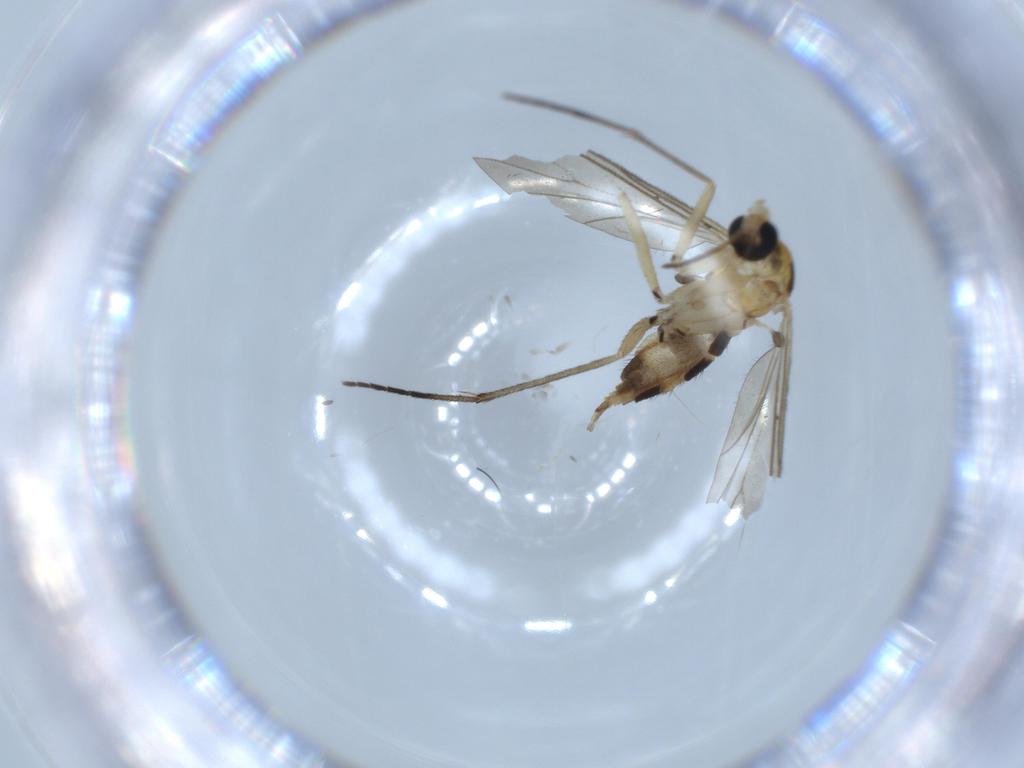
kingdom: Animalia
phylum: Arthropoda
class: Insecta
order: Diptera
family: Sciaridae
